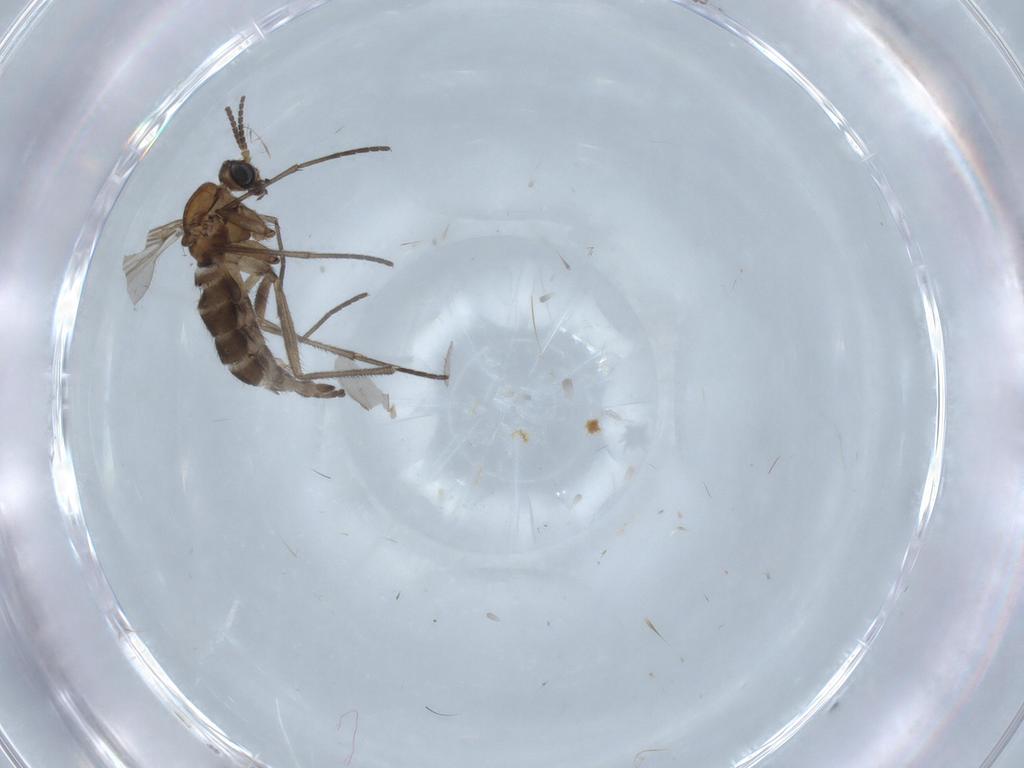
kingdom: Animalia
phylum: Arthropoda
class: Insecta
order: Diptera
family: Sciaridae
